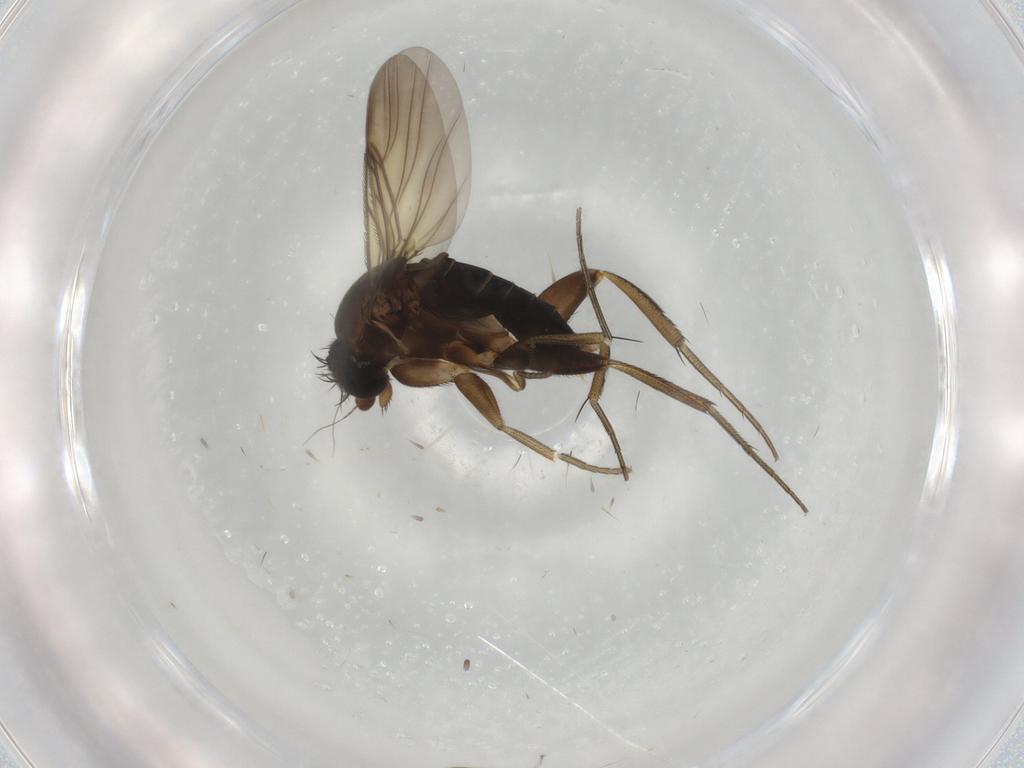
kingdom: Animalia
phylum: Arthropoda
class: Insecta
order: Diptera
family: Phoridae
